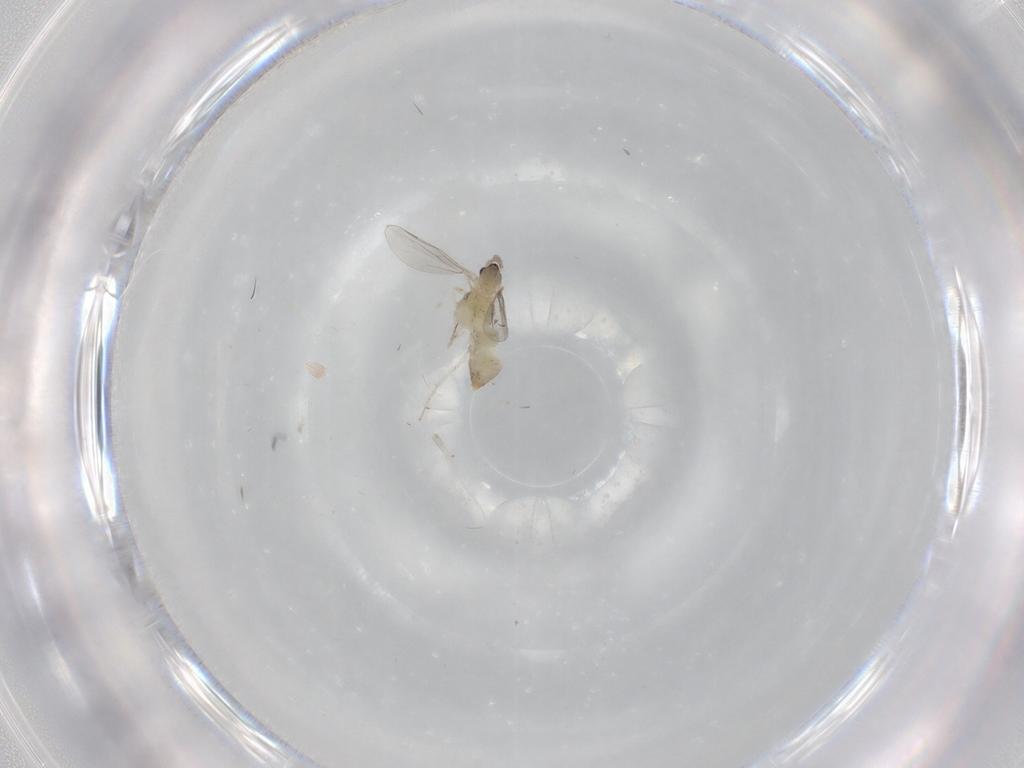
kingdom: Animalia
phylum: Arthropoda
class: Insecta
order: Diptera
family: Cecidomyiidae
